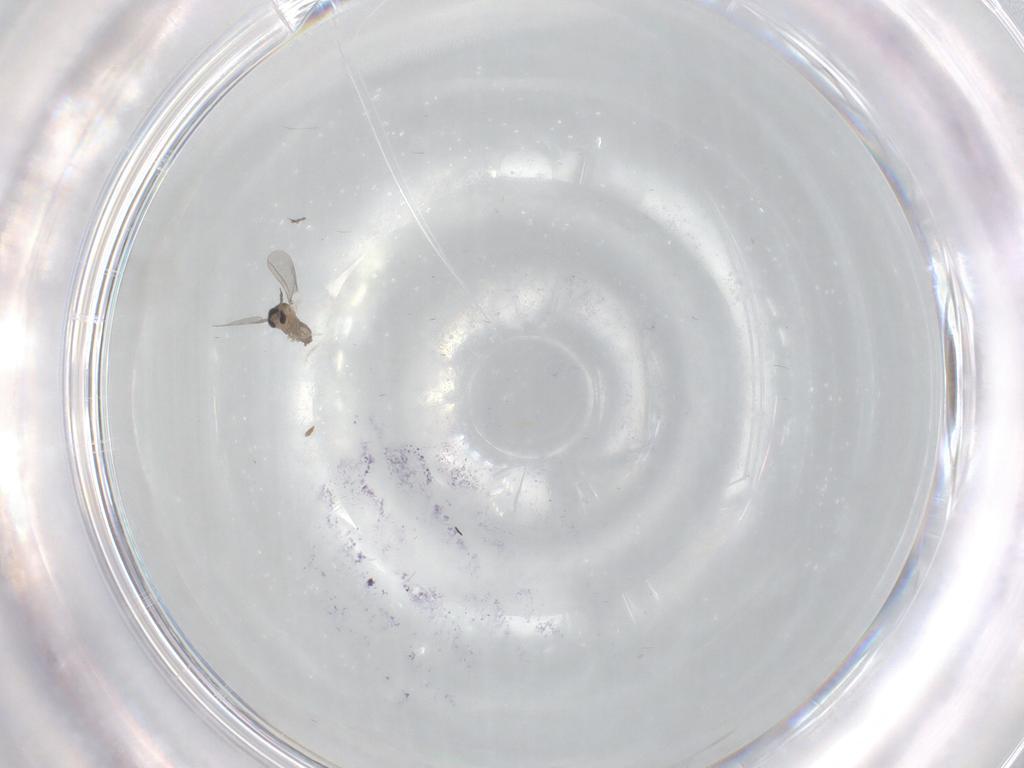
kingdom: Animalia
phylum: Arthropoda
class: Insecta
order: Diptera
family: Cecidomyiidae
